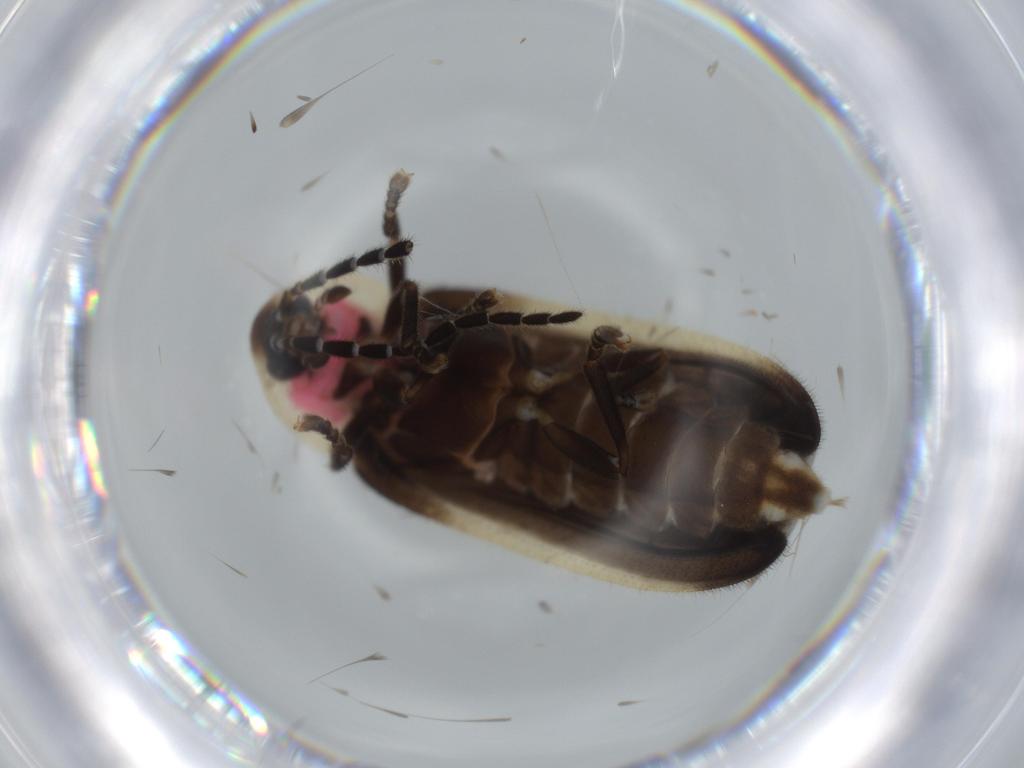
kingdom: Animalia
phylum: Arthropoda
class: Insecta
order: Coleoptera
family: Lampyridae
